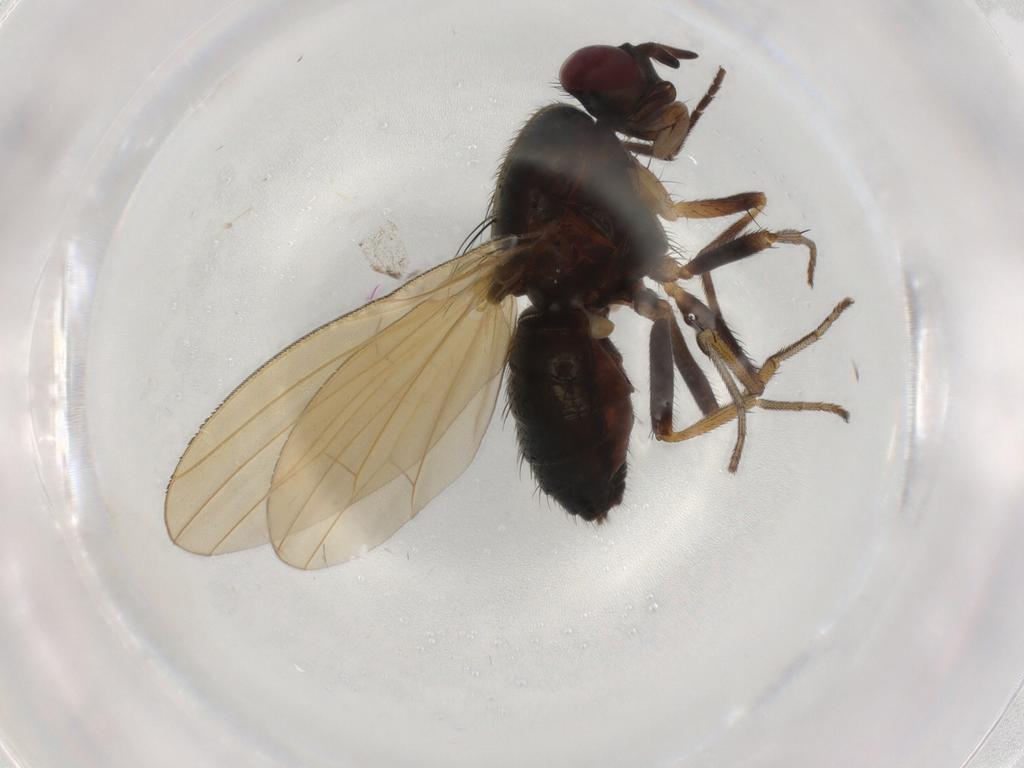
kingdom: Animalia
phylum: Arthropoda
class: Insecta
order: Diptera
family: Drosophilidae
